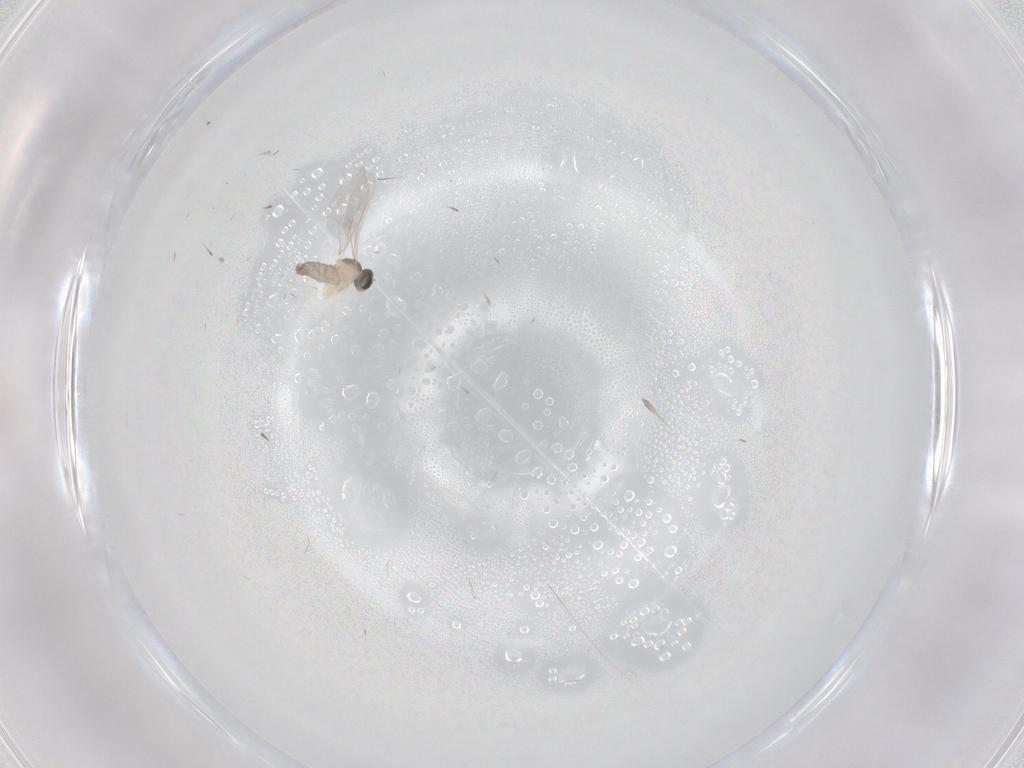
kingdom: Animalia
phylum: Arthropoda
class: Insecta
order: Diptera
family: Cecidomyiidae
